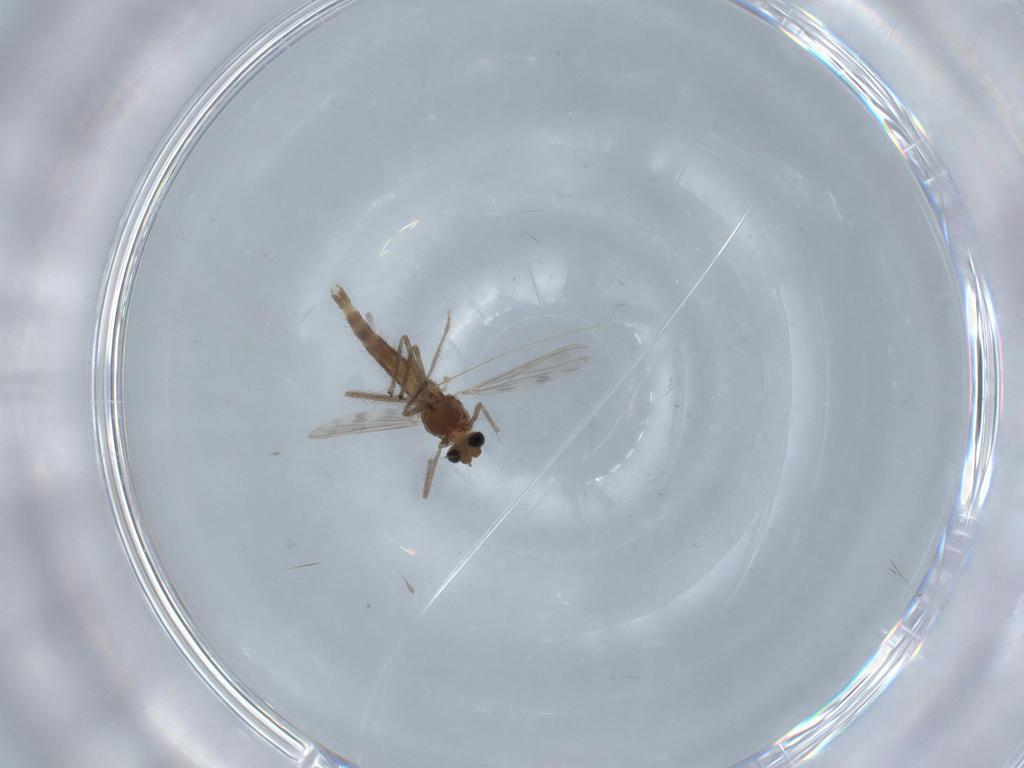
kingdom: Animalia
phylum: Arthropoda
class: Insecta
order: Diptera
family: Chironomidae
